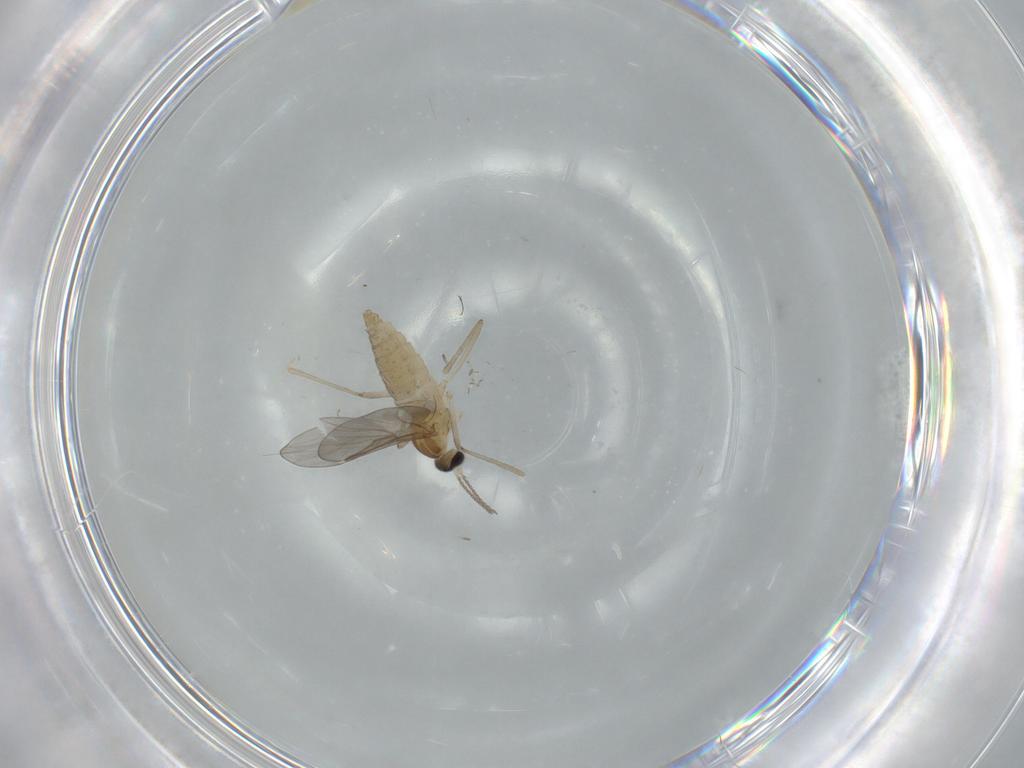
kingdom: Animalia
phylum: Arthropoda
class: Insecta
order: Diptera
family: Cecidomyiidae
